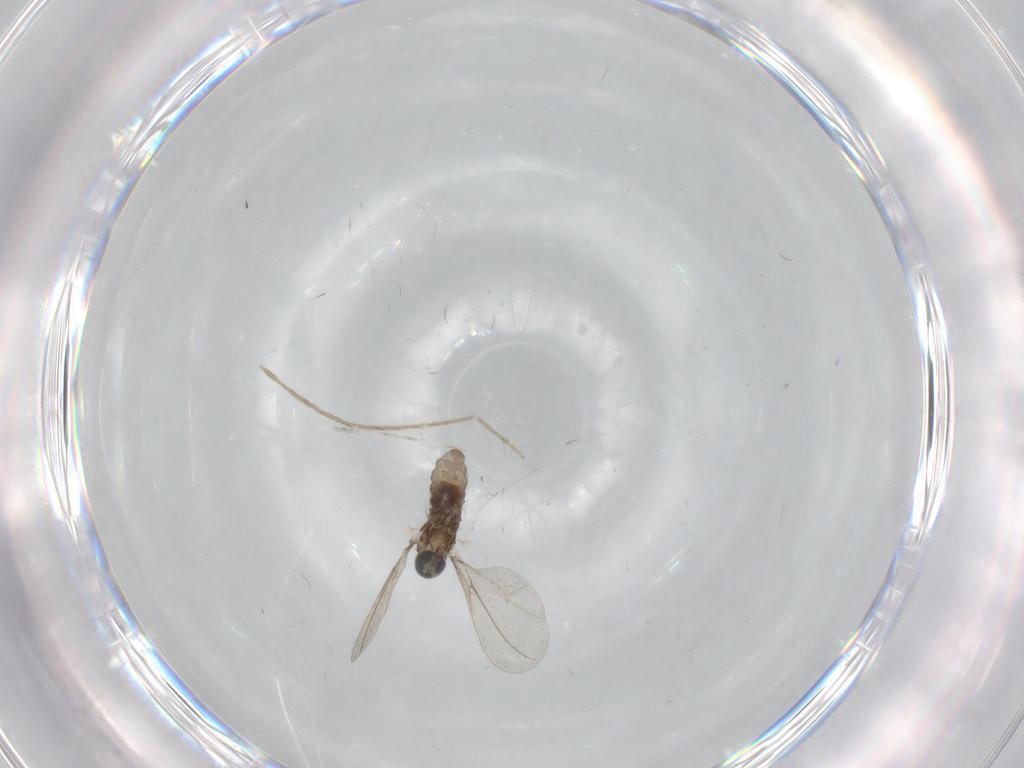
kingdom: Animalia
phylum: Arthropoda
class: Insecta
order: Diptera
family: Cecidomyiidae
